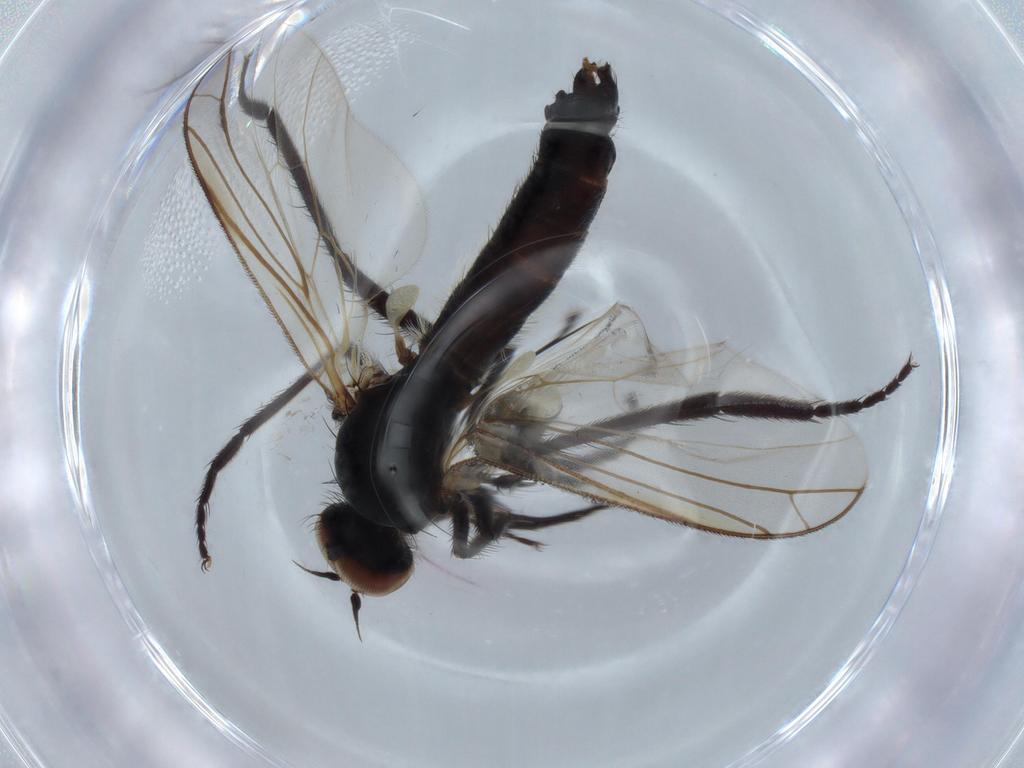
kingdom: Animalia
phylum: Arthropoda
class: Insecta
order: Diptera
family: Empididae
